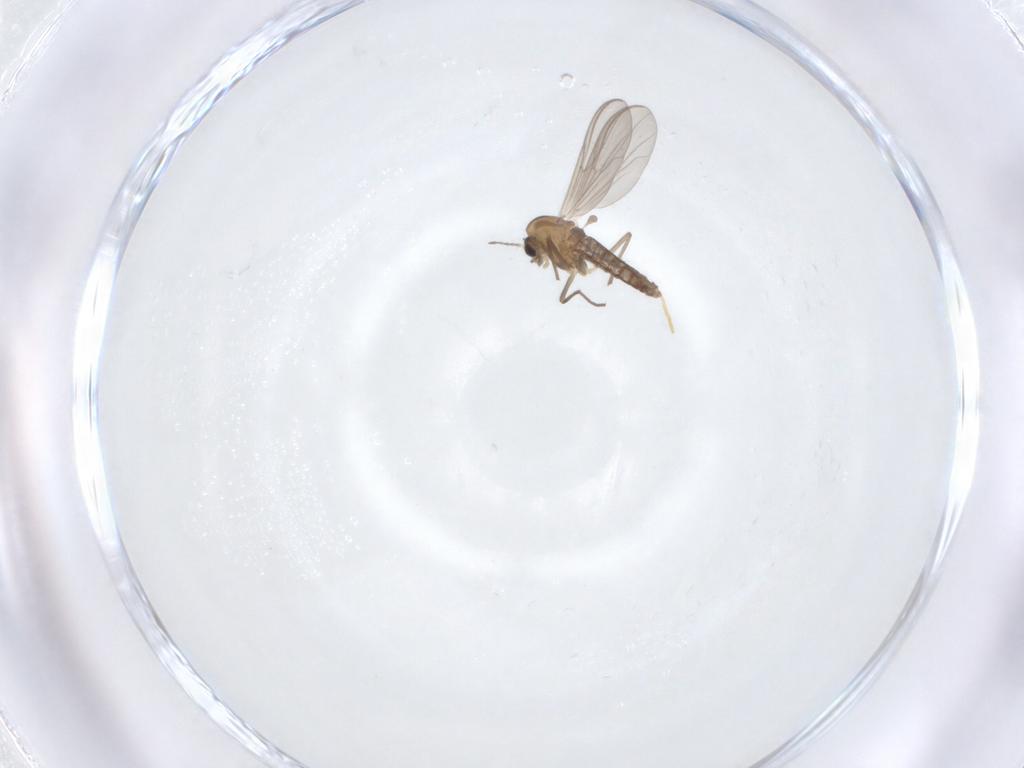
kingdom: Animalia
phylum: Arthropoda
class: Insecta
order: Diptera
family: Chironomidae
